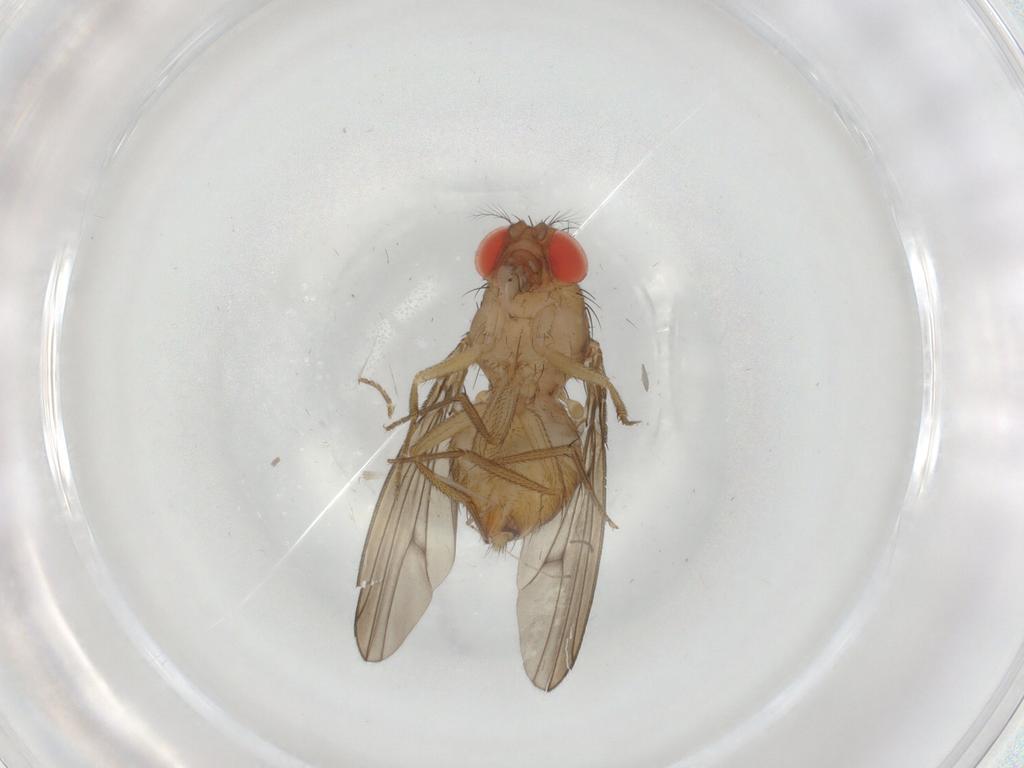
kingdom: Animalia
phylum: Arthropoda
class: Insecta
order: Diptera
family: Drosophilidae
